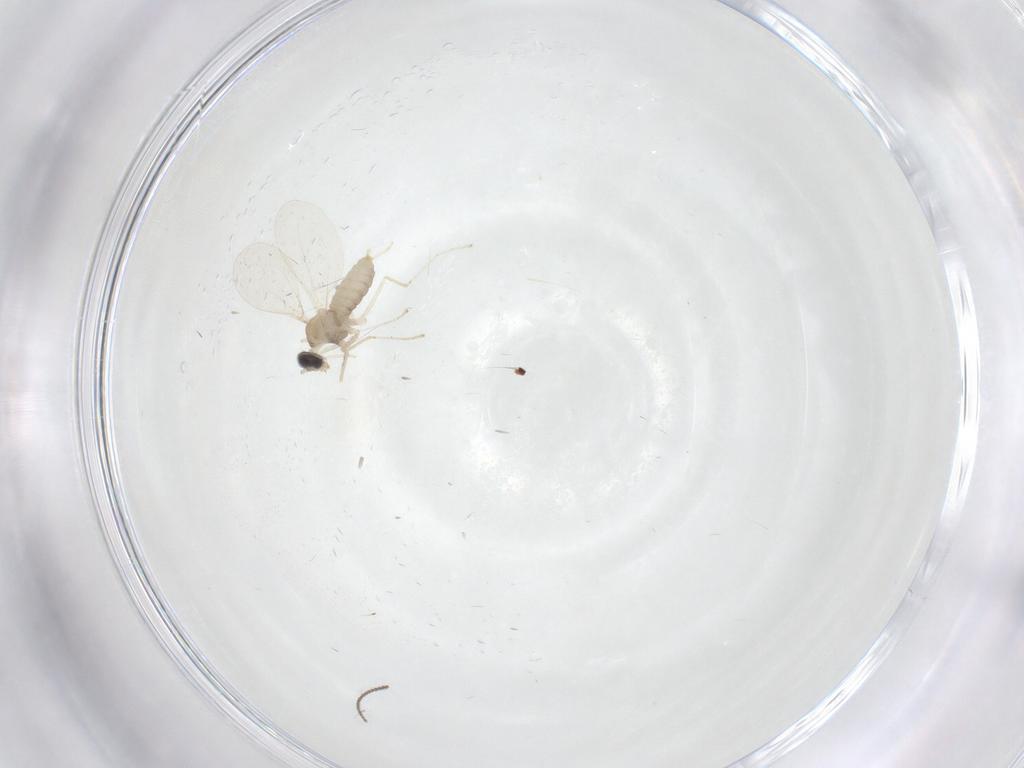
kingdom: Animalia
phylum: Arthropoda
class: Insecta
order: Diptera
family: Cecidomyiidae
